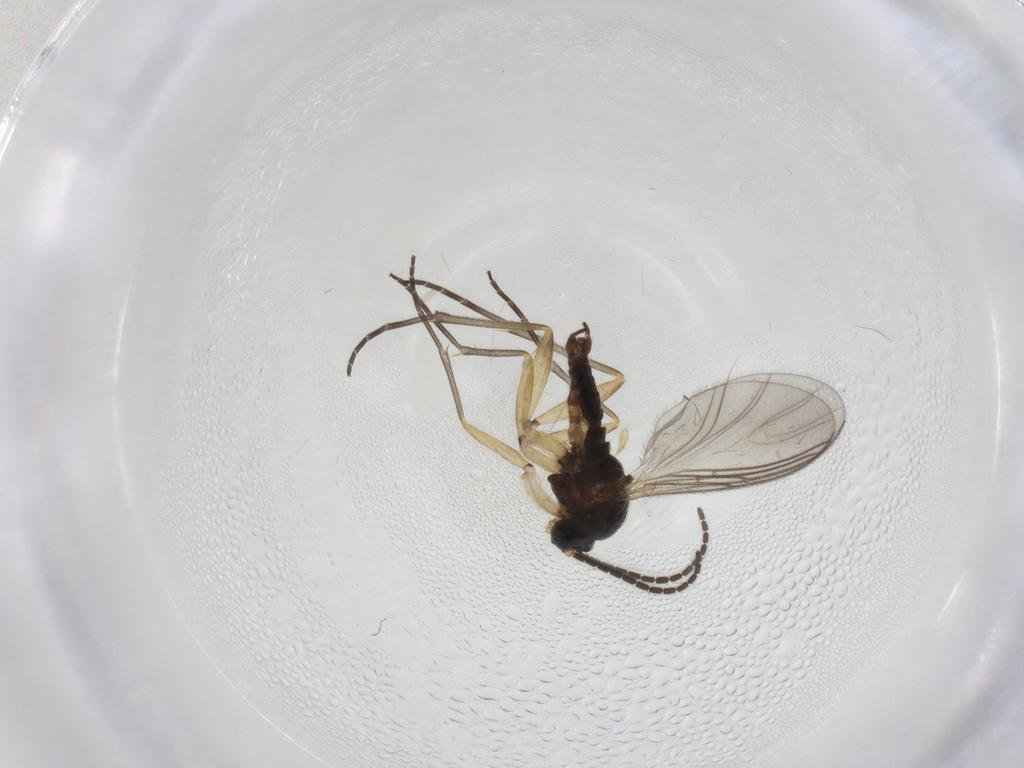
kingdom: Animalia
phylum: Arthropoda
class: Insecta
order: Diptera
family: Sciaridae
